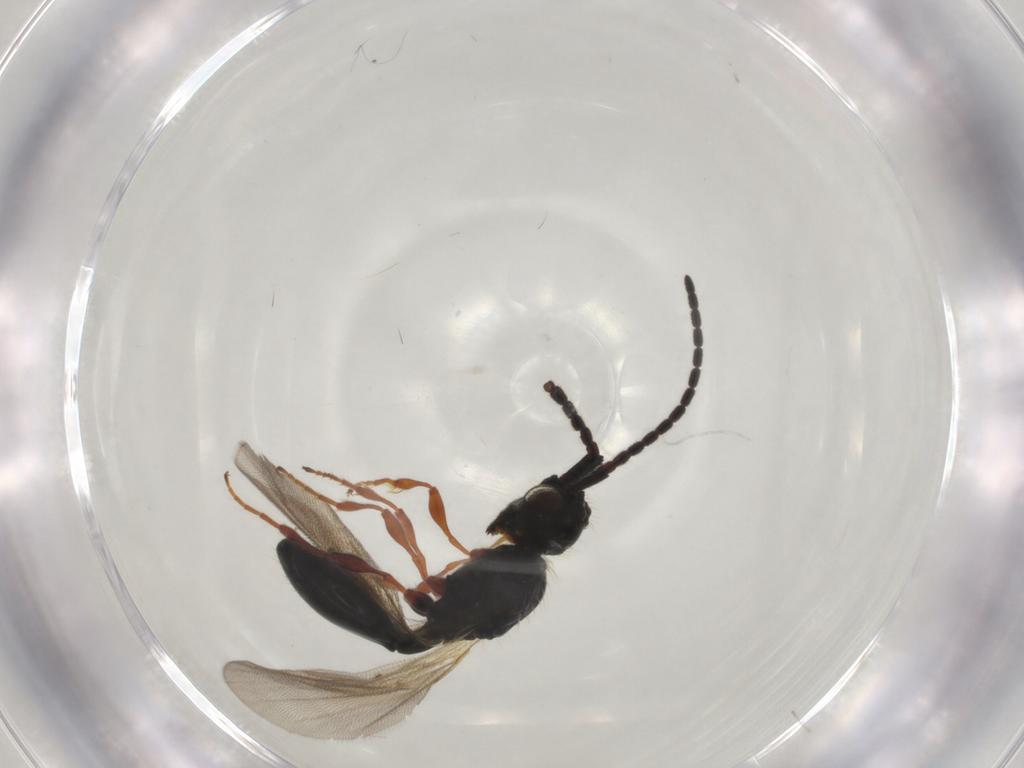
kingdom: Animalia
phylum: Arthropoda
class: Insecta
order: Hymenoptera
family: Diapriidae
